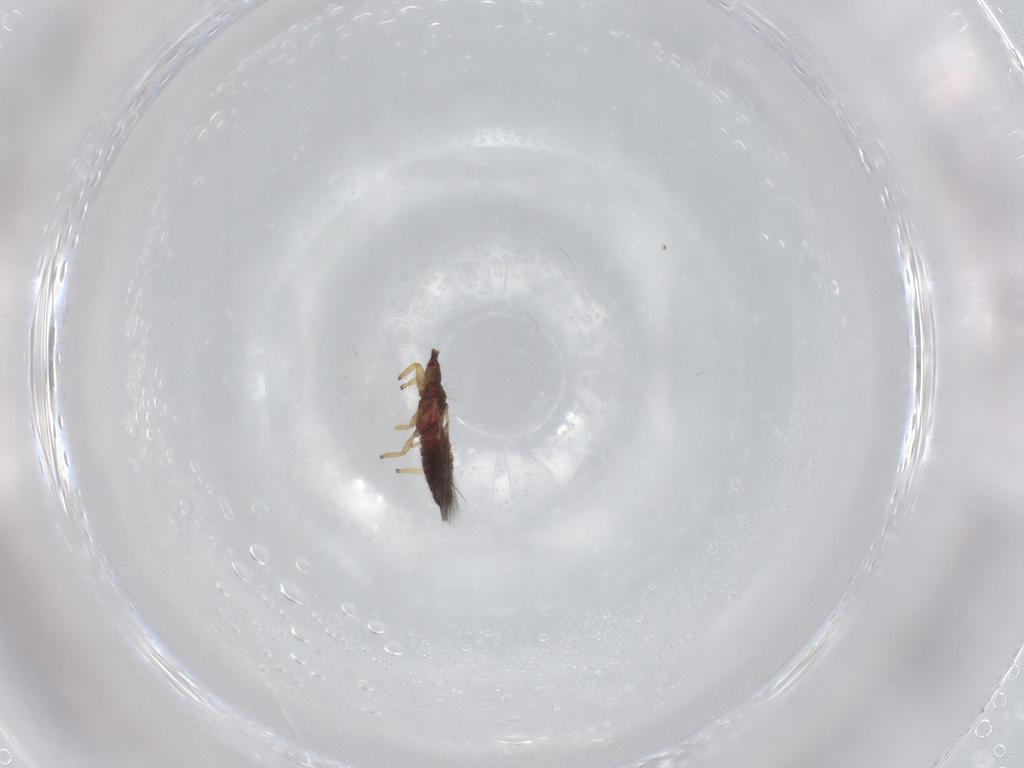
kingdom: Animalia
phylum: Arthropoda
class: Insecta
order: Thysanoptera
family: Phlaeothripidae
